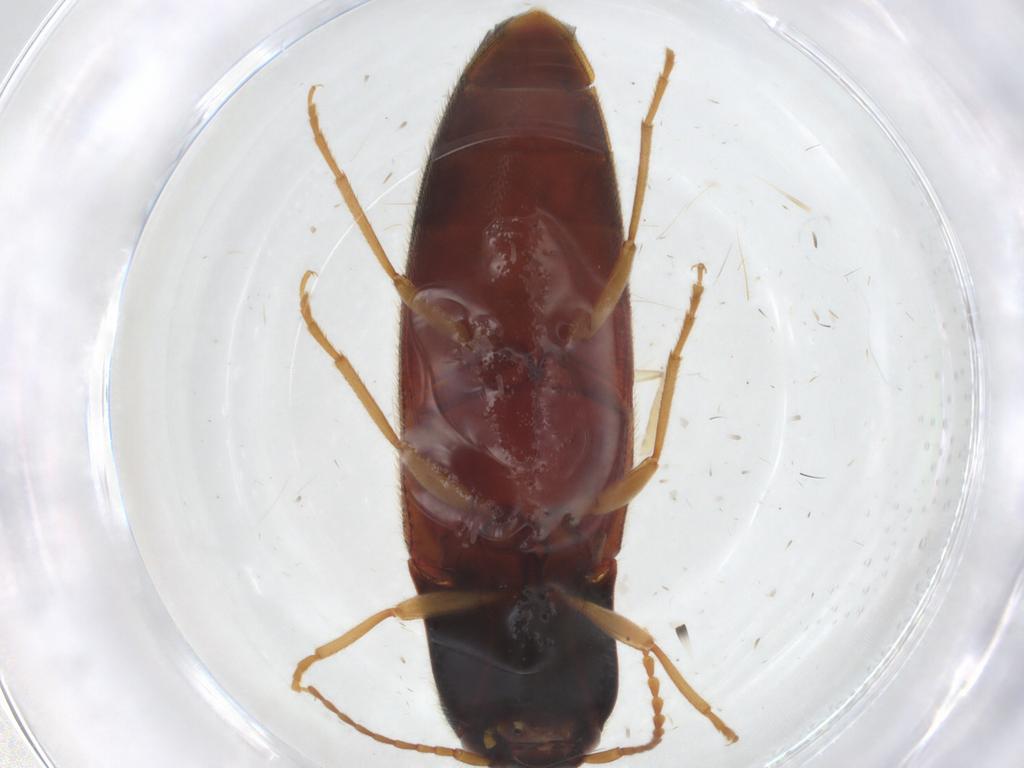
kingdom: Animalia
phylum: Arthropoda
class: Insecta
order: Coleoptera
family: Elateridae
